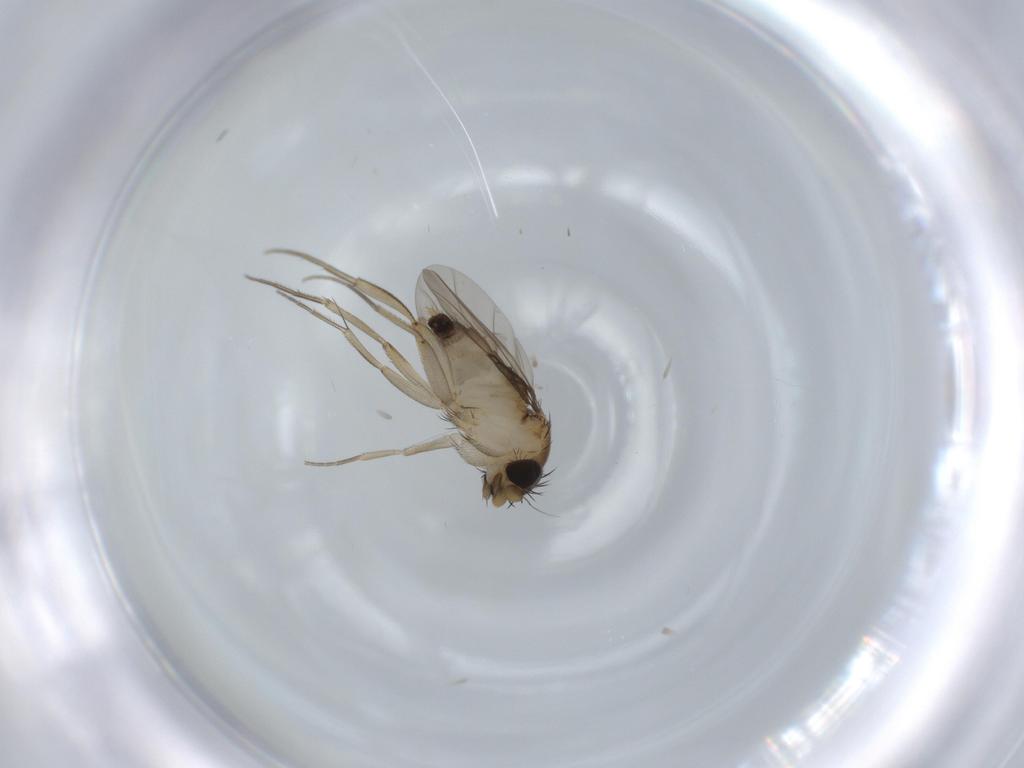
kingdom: Animalia
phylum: Arthropoda
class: Insecta
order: Diptera
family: Phoridae
